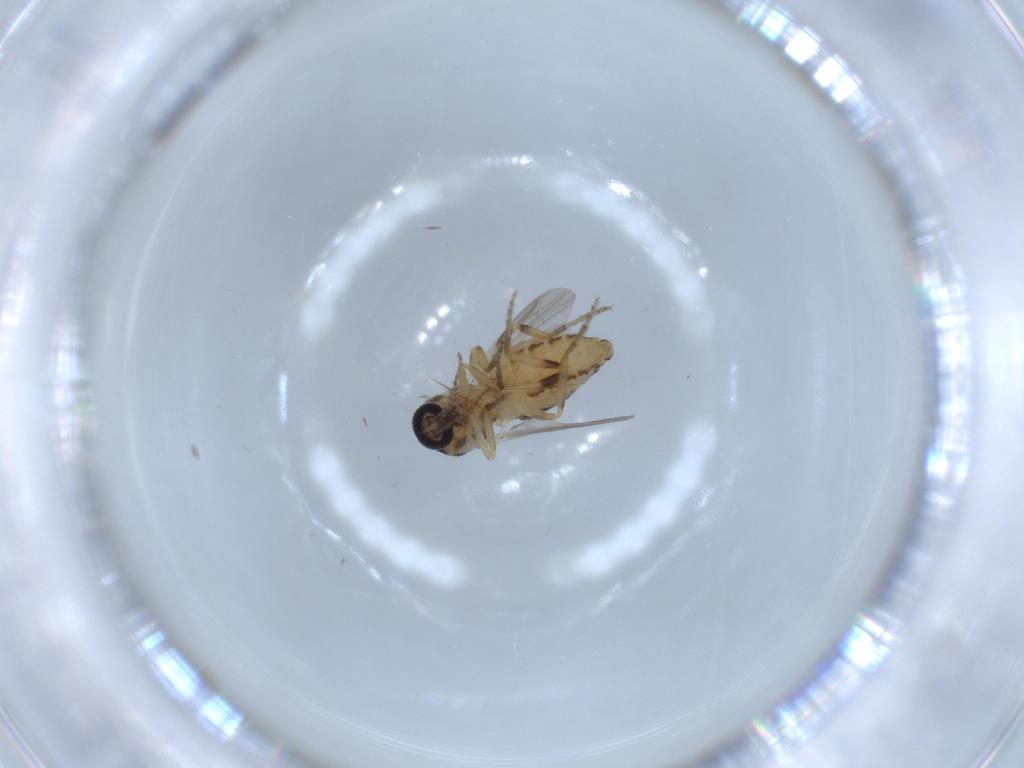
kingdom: Animalia
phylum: Arthropoda
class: Insecta
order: Diptera
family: Ceratopogonidae
